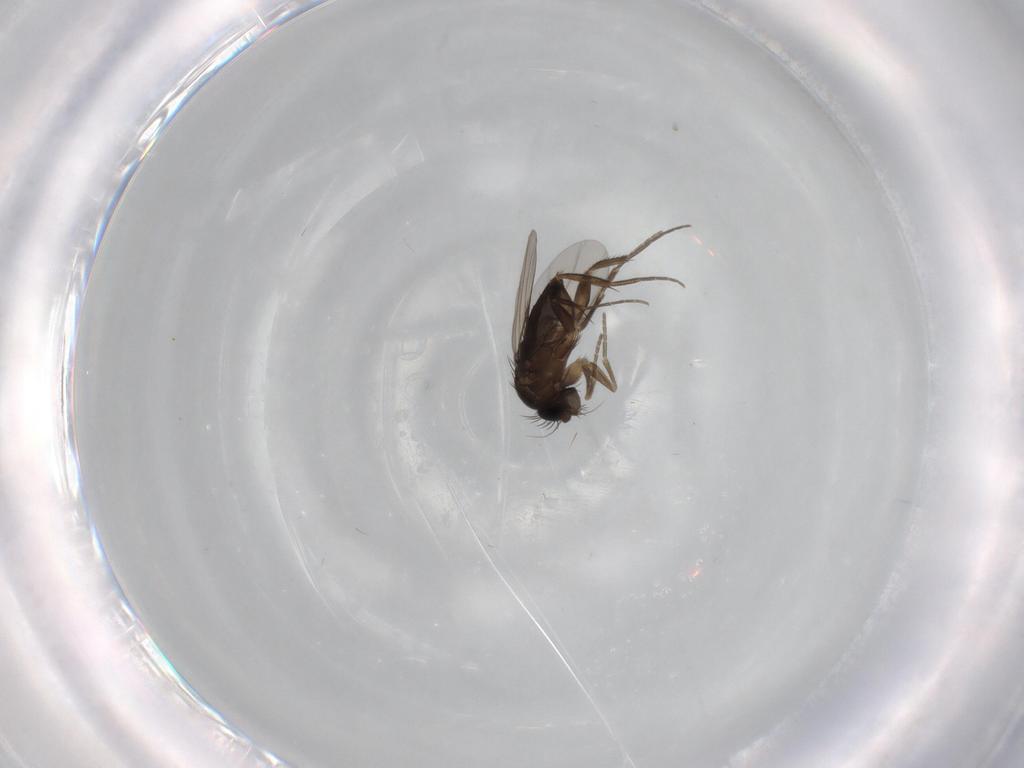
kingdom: Animalia
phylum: Arthropoda
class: Insecta
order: Diptera
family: Phoridae
